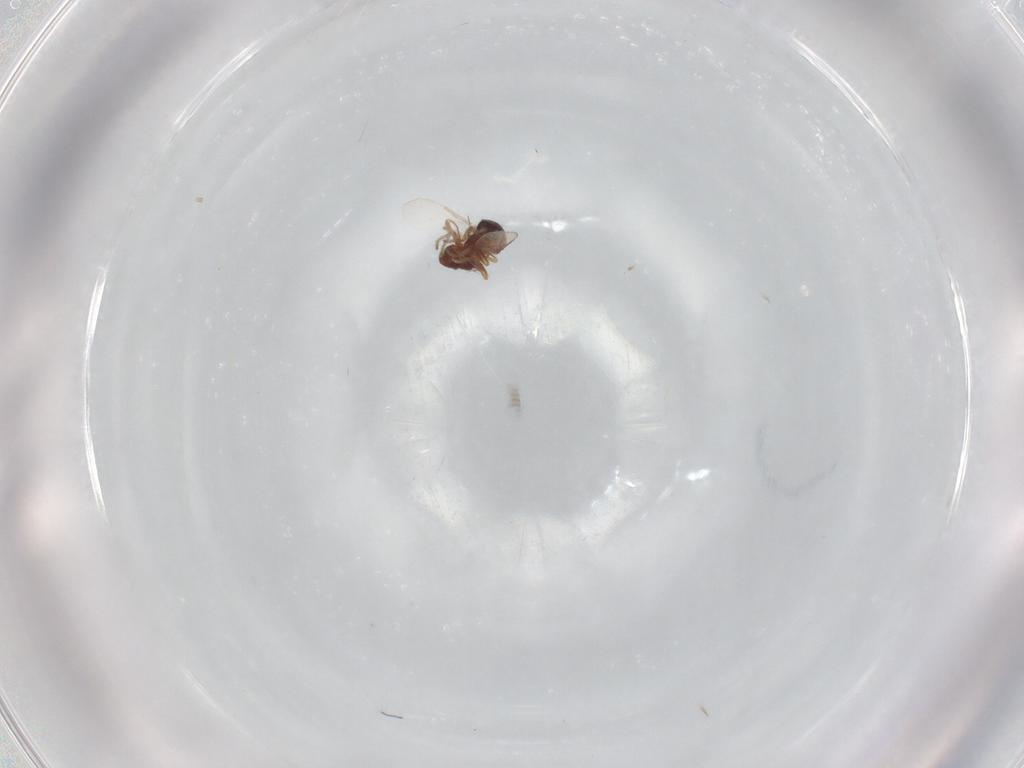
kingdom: Animalia
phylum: Arthropoda
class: Insecta
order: Diptera
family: Ceratopogonidae
